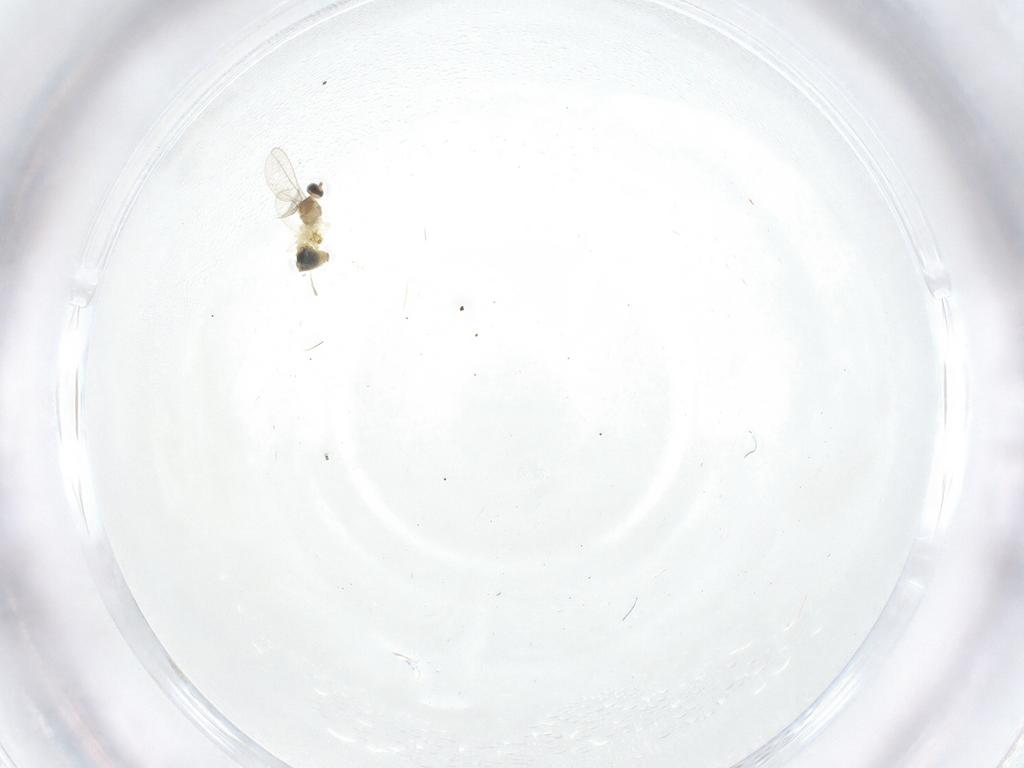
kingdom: Animalia
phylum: Arthropoda
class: Insecta
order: Diptera
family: Cecidomyiidae
